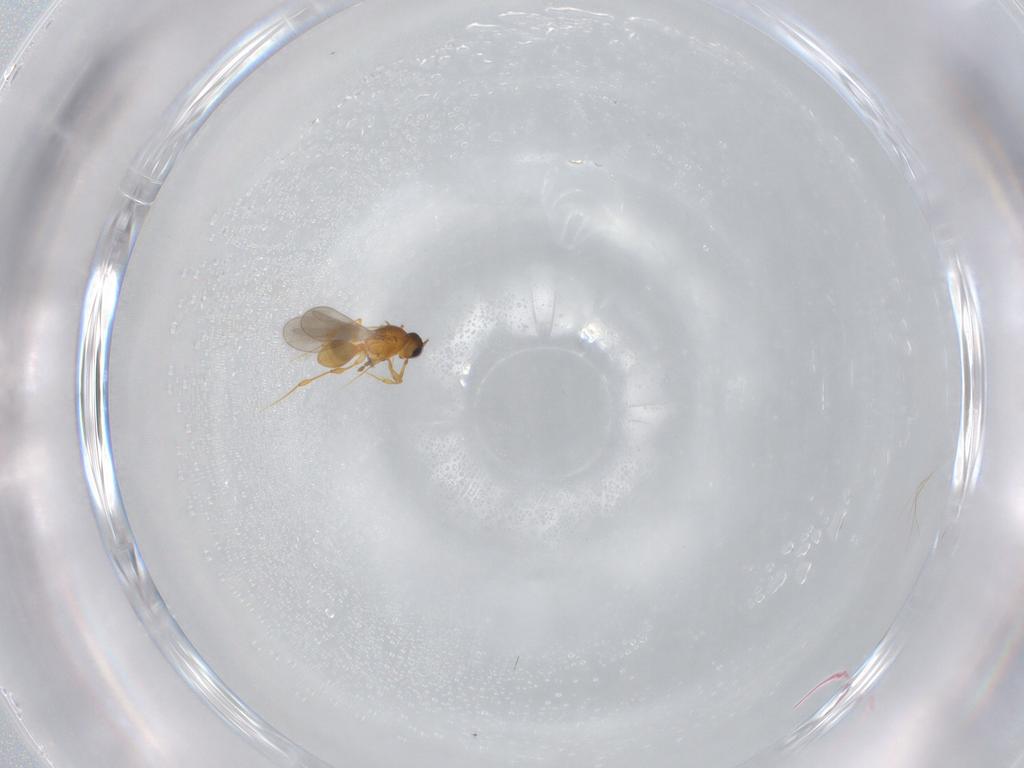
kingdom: Animalia
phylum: Arthropoda
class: Insecta
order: Hymenoptera
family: Platygastridae
